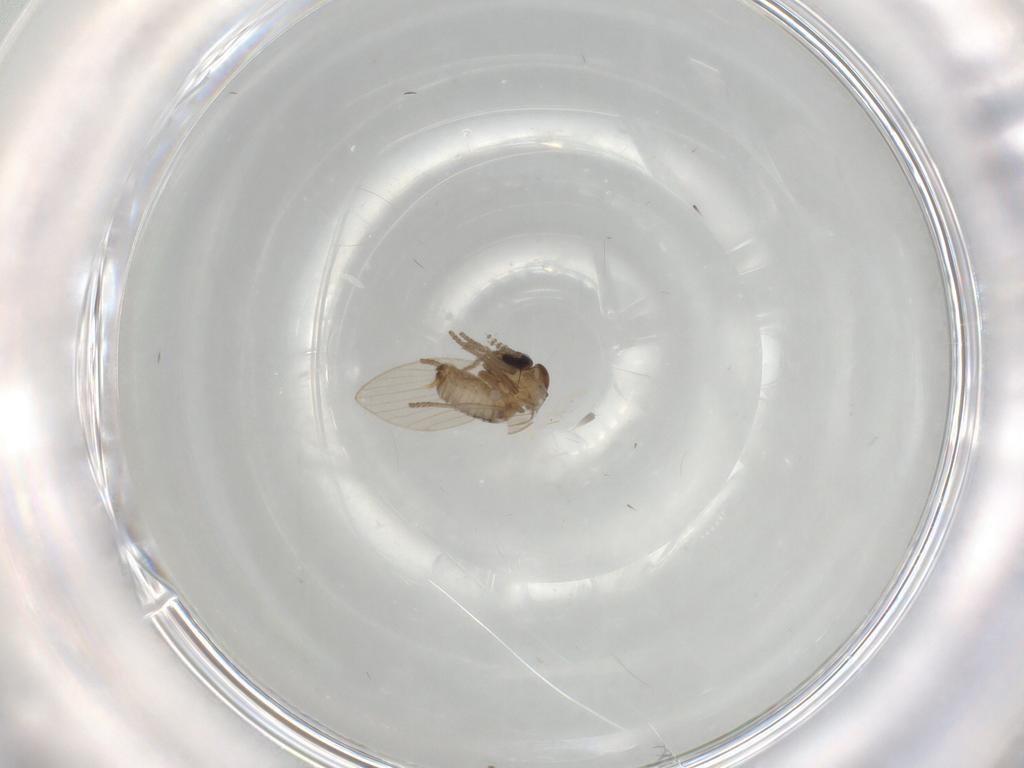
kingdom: Animalia
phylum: Arthropoda
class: Insecta
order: Diptera
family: Psychodidae
